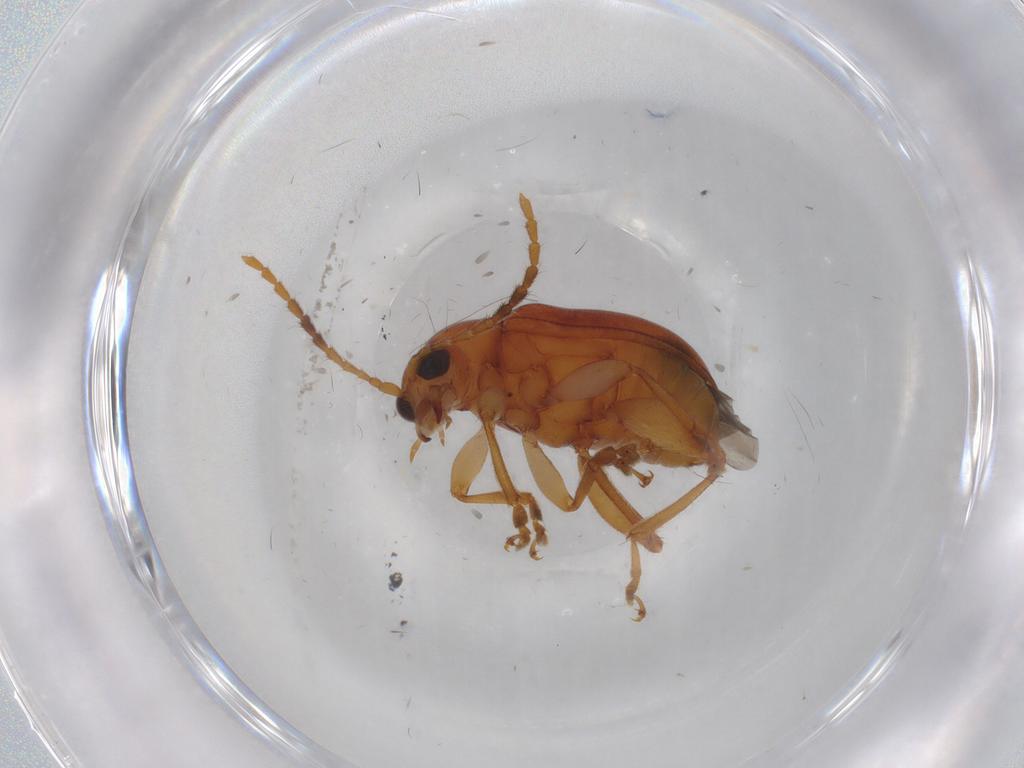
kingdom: Animalia
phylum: Arthropoda
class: Insecta
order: Coleoptera
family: Chrysomelidae
